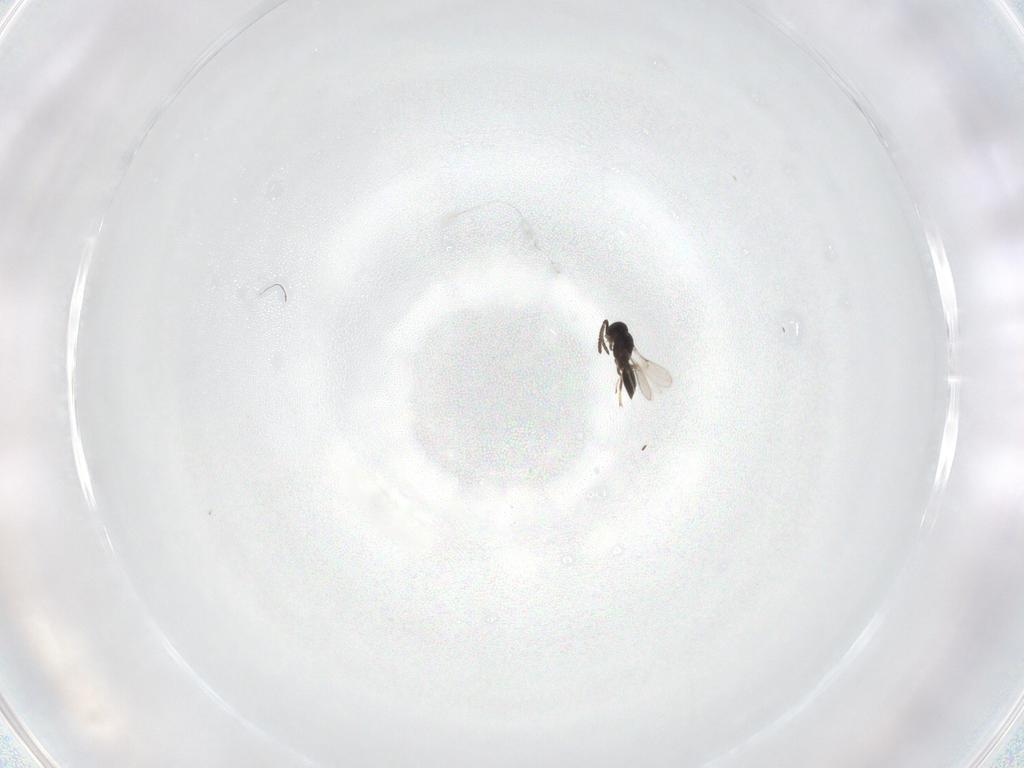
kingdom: Animalia
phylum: Arthropoda
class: Insecta
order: Hymenoptera
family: Scelionidae
